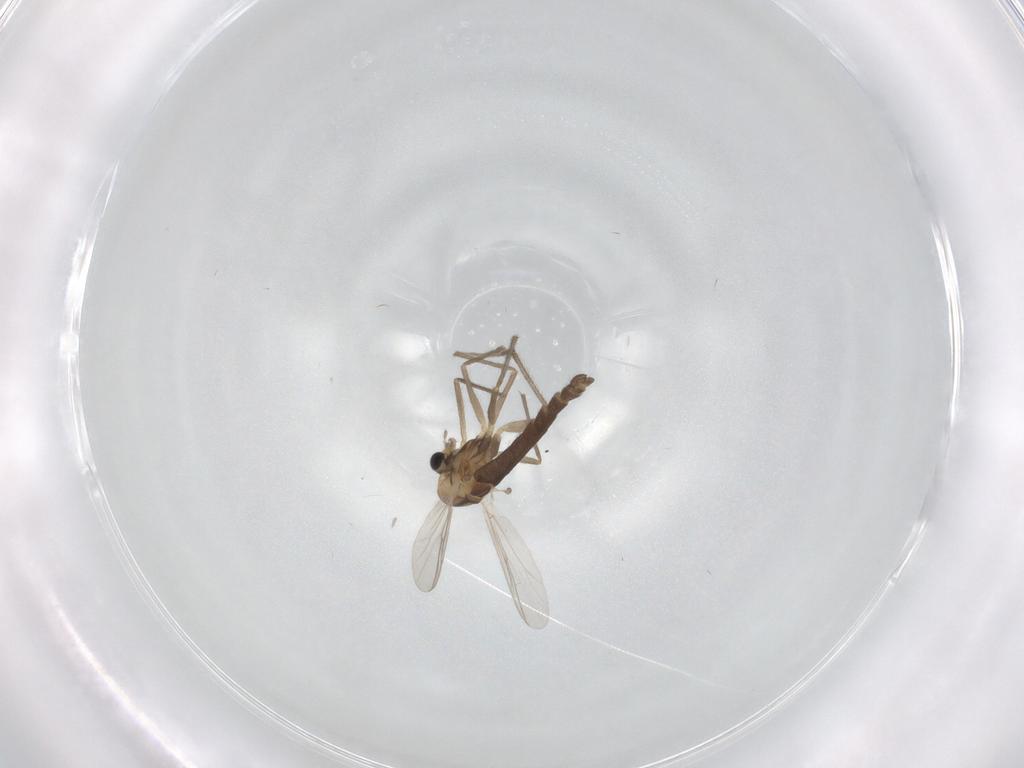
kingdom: Animalia
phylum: Arthropoda
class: Insecta
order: Diptera
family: Chironomidae
